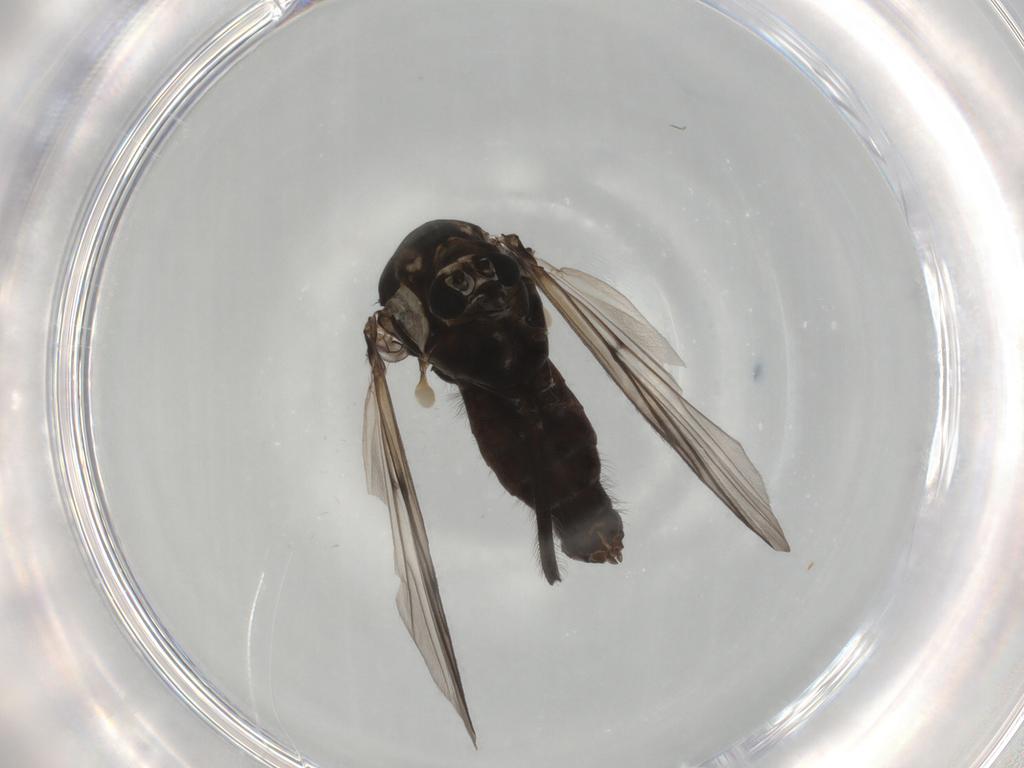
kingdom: Animalia
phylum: Arthropoda
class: Insecta
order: Diptera
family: Chironomidae
